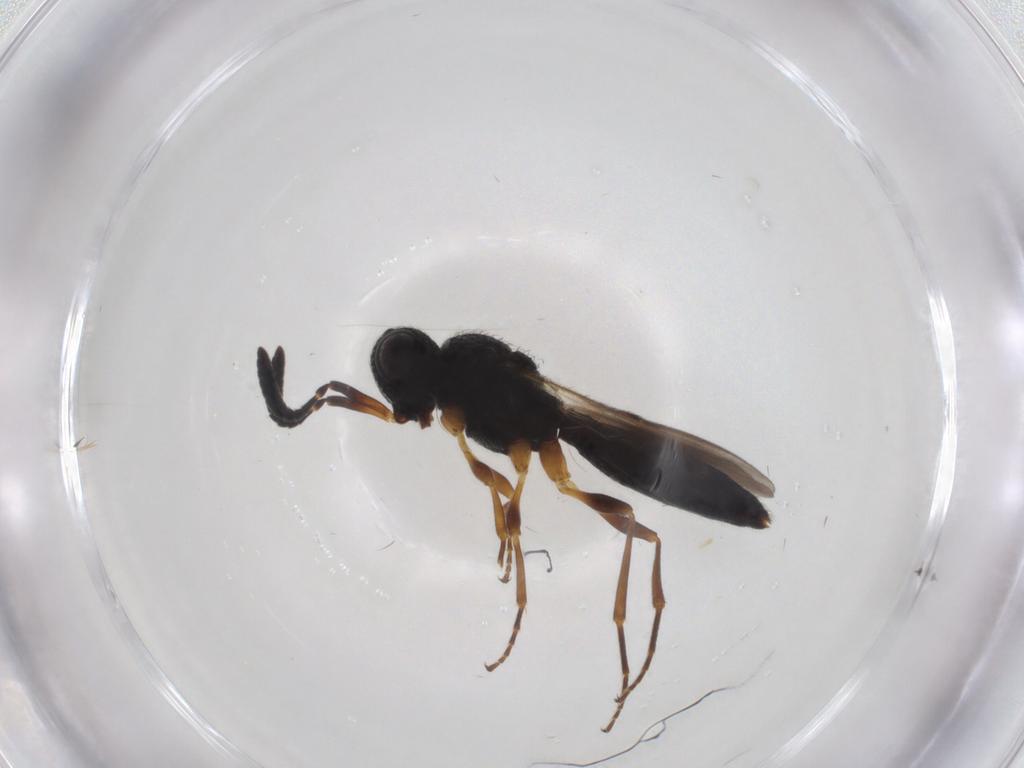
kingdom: Animalia
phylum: Arthropoda
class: Insecta
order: Hymenoptera
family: Scelionidae
